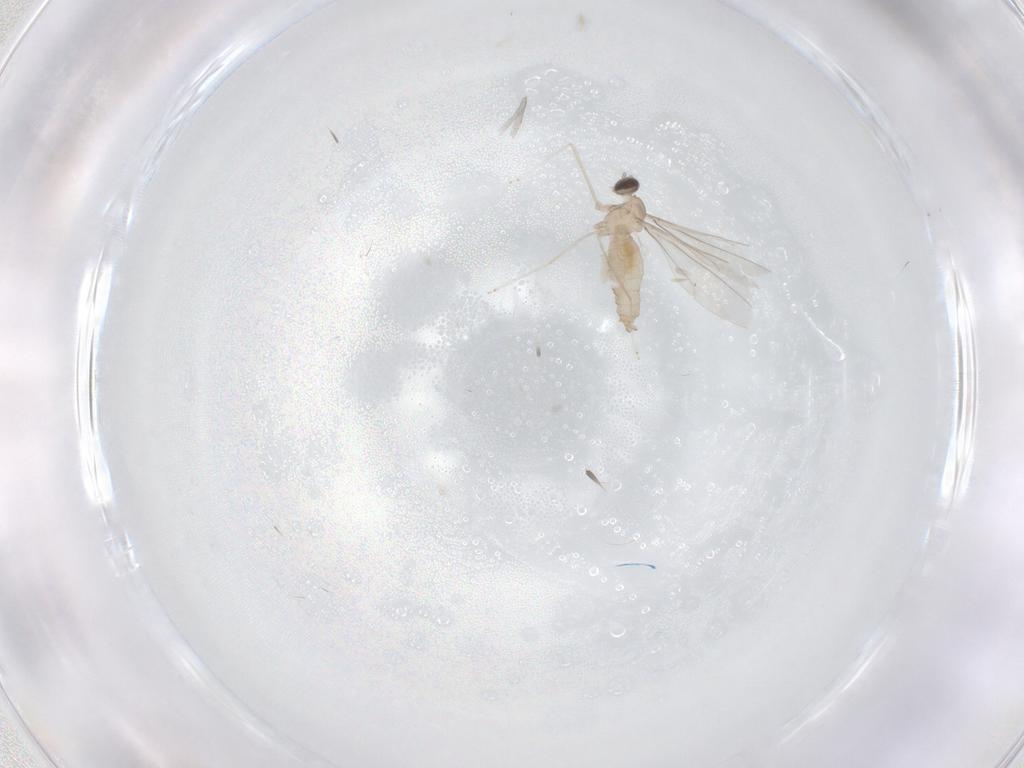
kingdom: Animalia
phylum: Arthropoda
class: Insecta
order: Diptera
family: Cecidomyiidae
